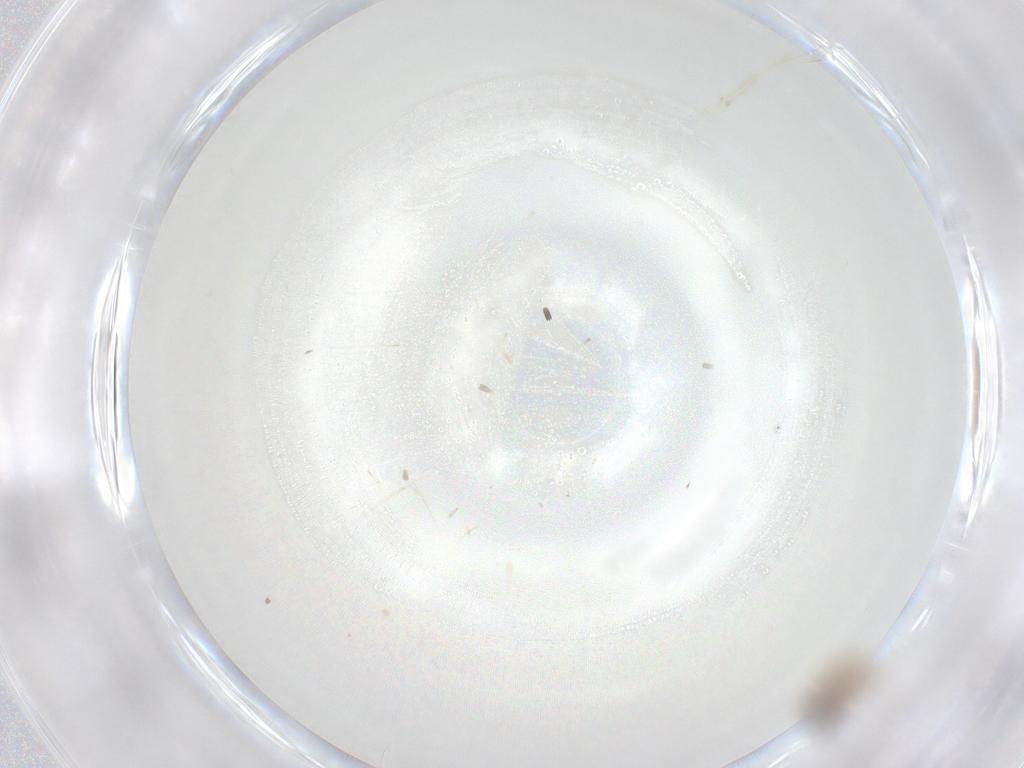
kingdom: Animalia
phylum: Arthropoda
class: Insecta
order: Diptera
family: Ceratopogonidae
